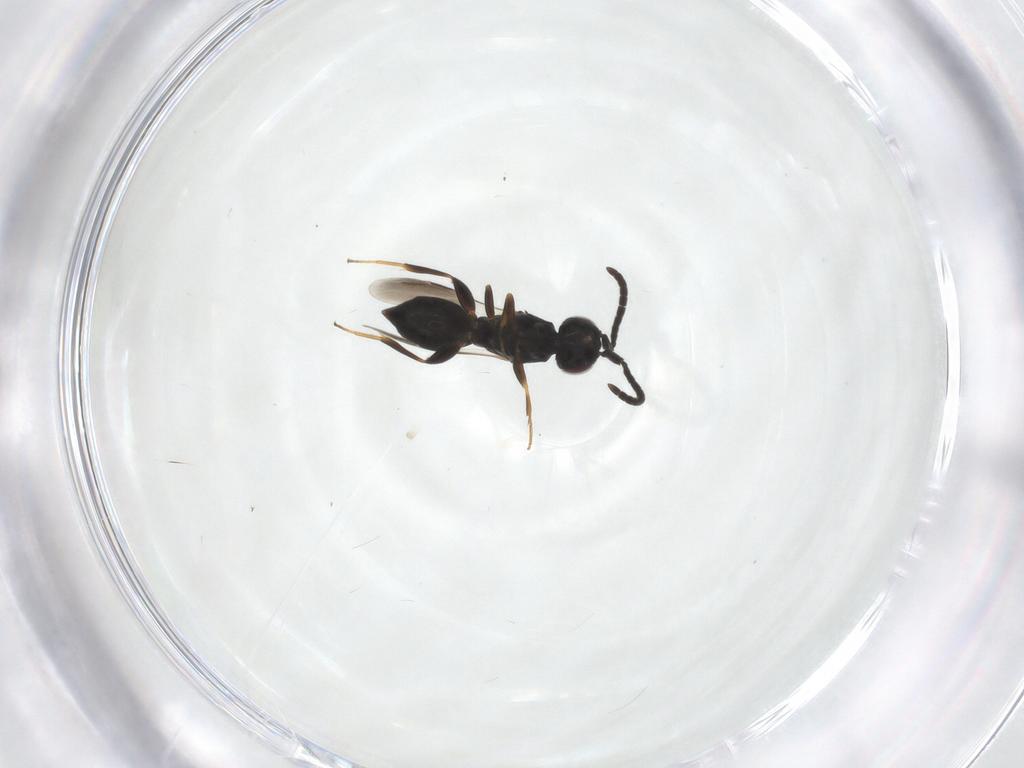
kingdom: Animalia
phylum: Arthropoda
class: Insecta
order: Hymenoptera
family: Megaspilidae
